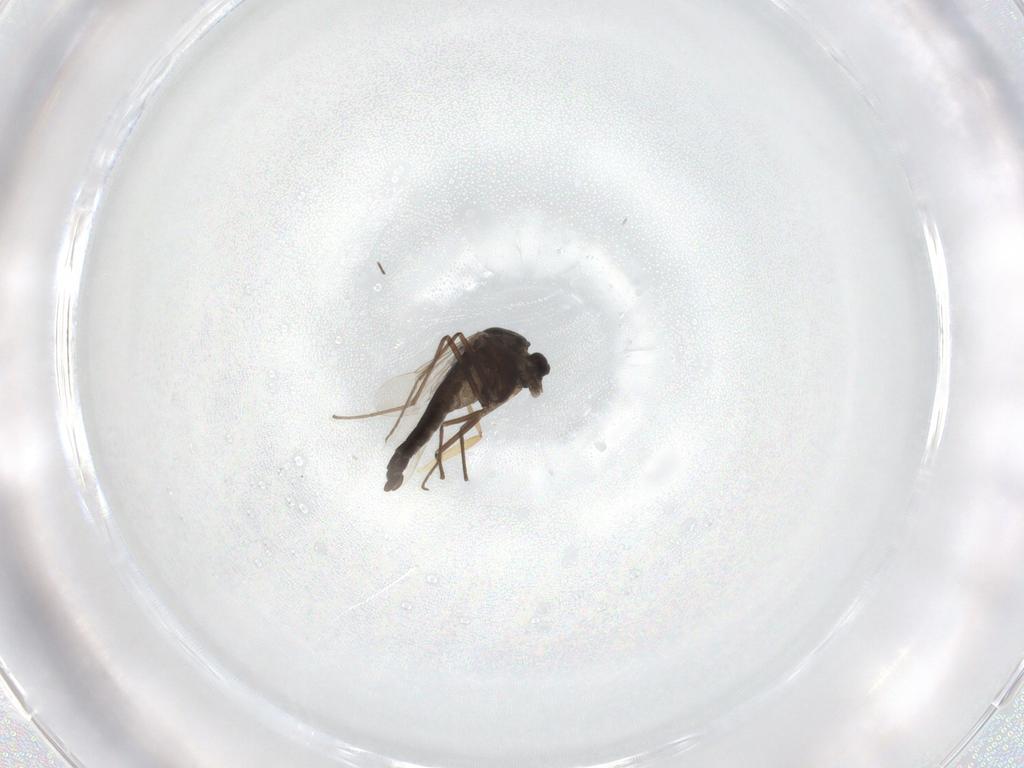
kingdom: Animalia
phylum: Arthropoda
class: Insecta
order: Diptera
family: Chironomidae
